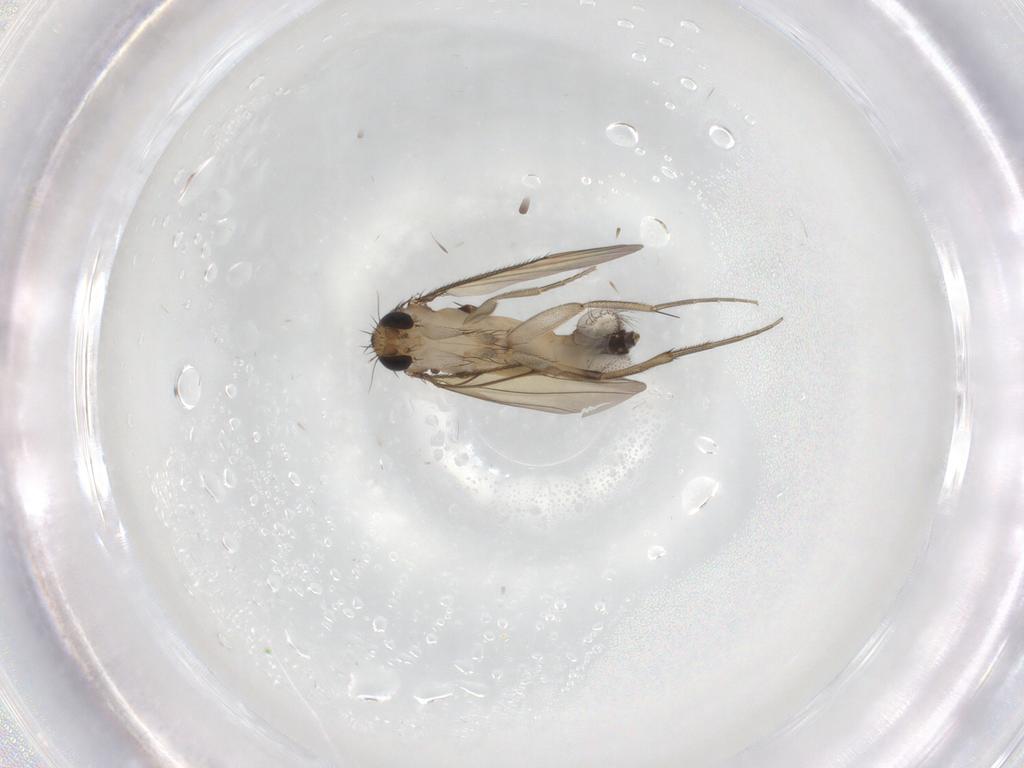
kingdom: Animalia
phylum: Arthropoda
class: Insecta
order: Diptera
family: Phoridae
